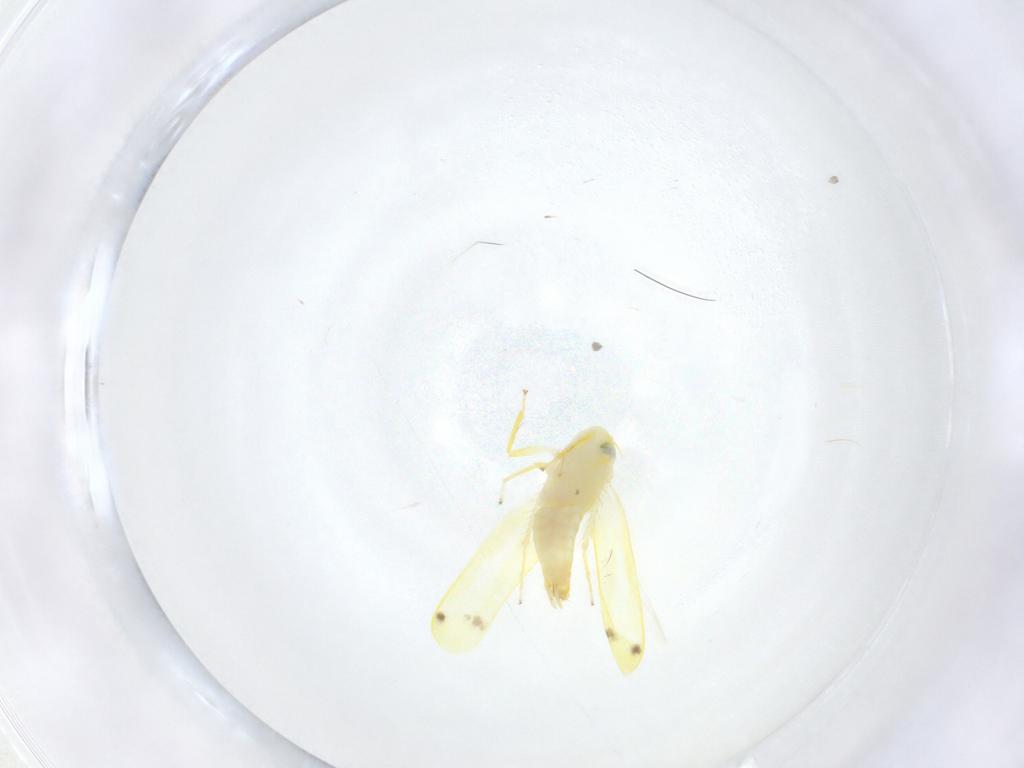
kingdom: Animalia
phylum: Arthropoda
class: Insecta
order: Hemiptera
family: Cicadellidae
